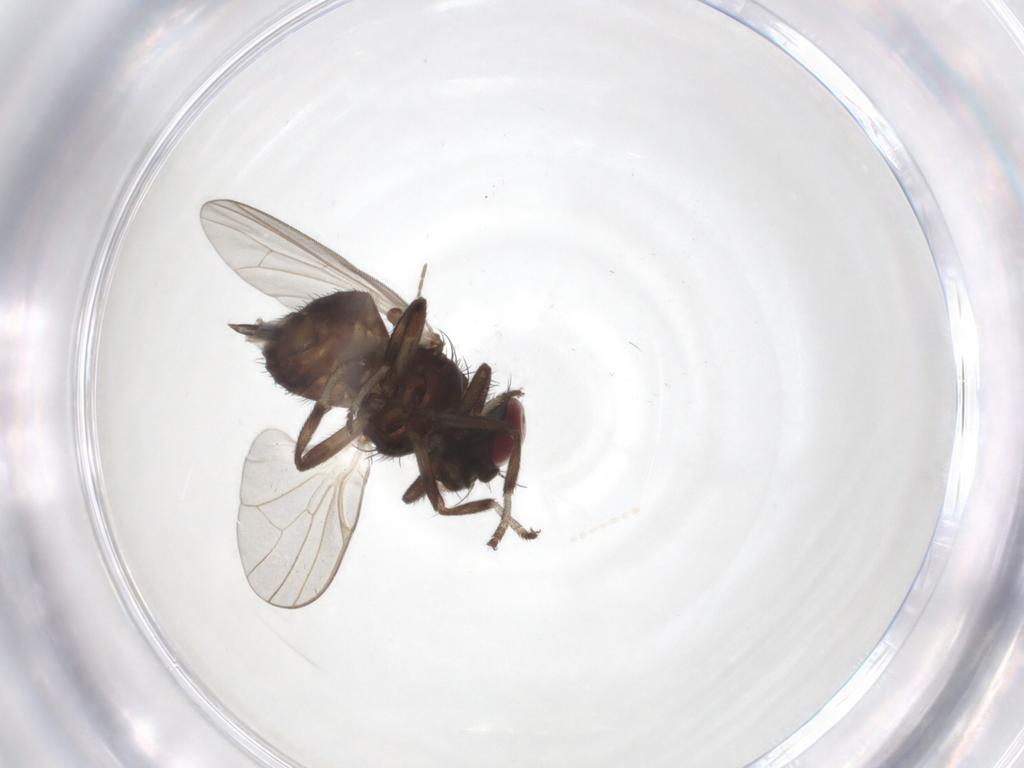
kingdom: Animalia
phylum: Arthropoda
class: Insecta
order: Diptera
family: Lonchaeidae
